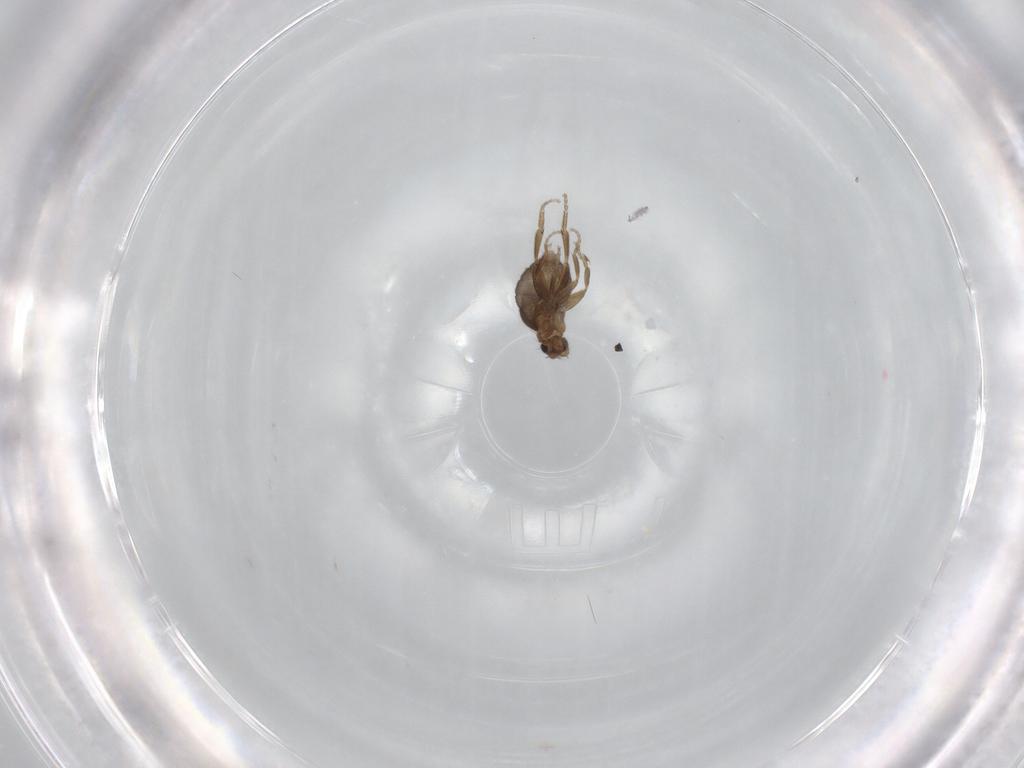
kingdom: Animalia
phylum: Arthropoda
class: Insecta
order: Diptera
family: Phoridae
